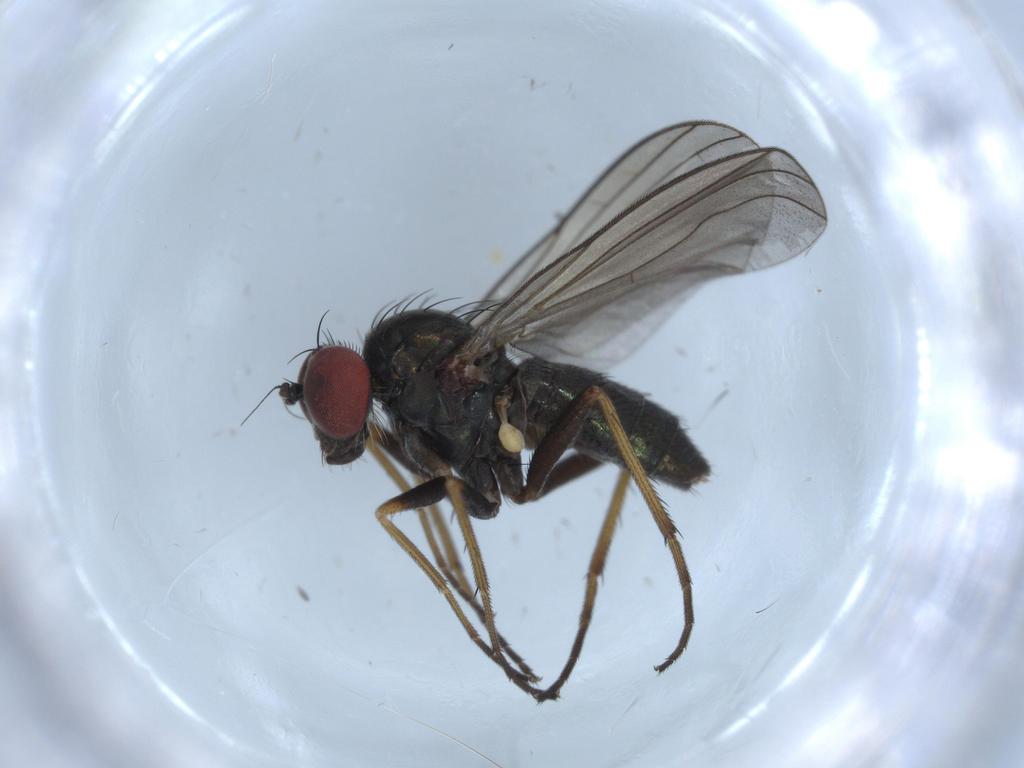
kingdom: Animalia
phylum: Arthropoda
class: Insecta
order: Diptera
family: Dolichopodidae
